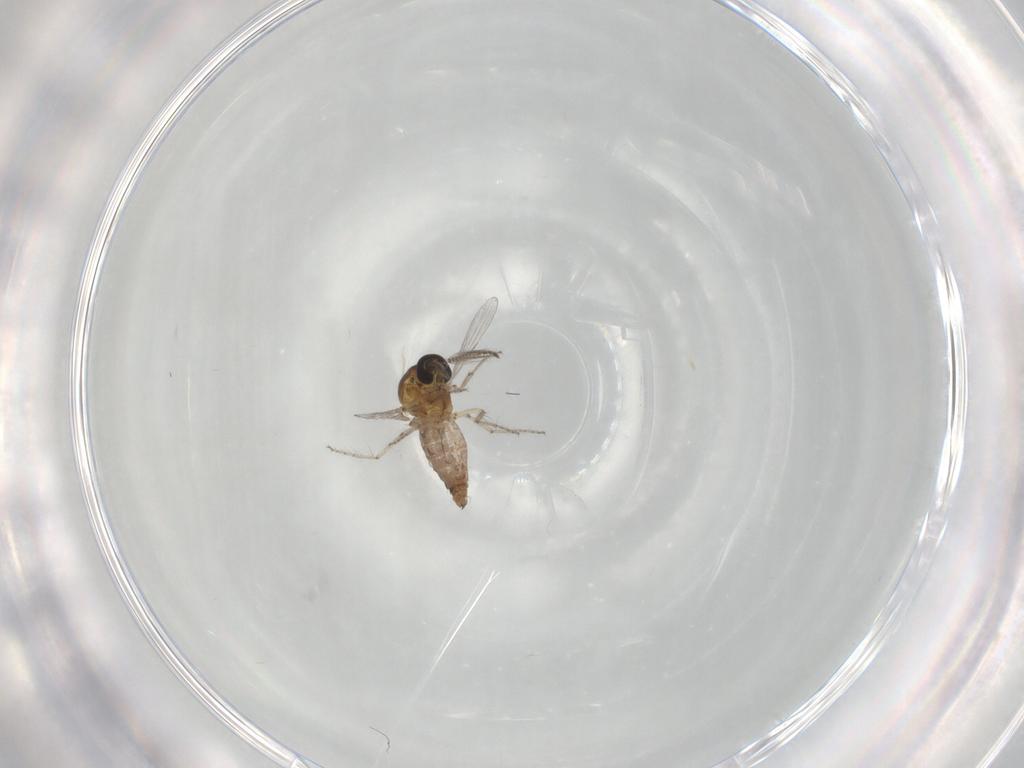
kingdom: Animalia
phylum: Arthropoda
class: Insecta
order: Diptera
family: Ceratopogonidae
